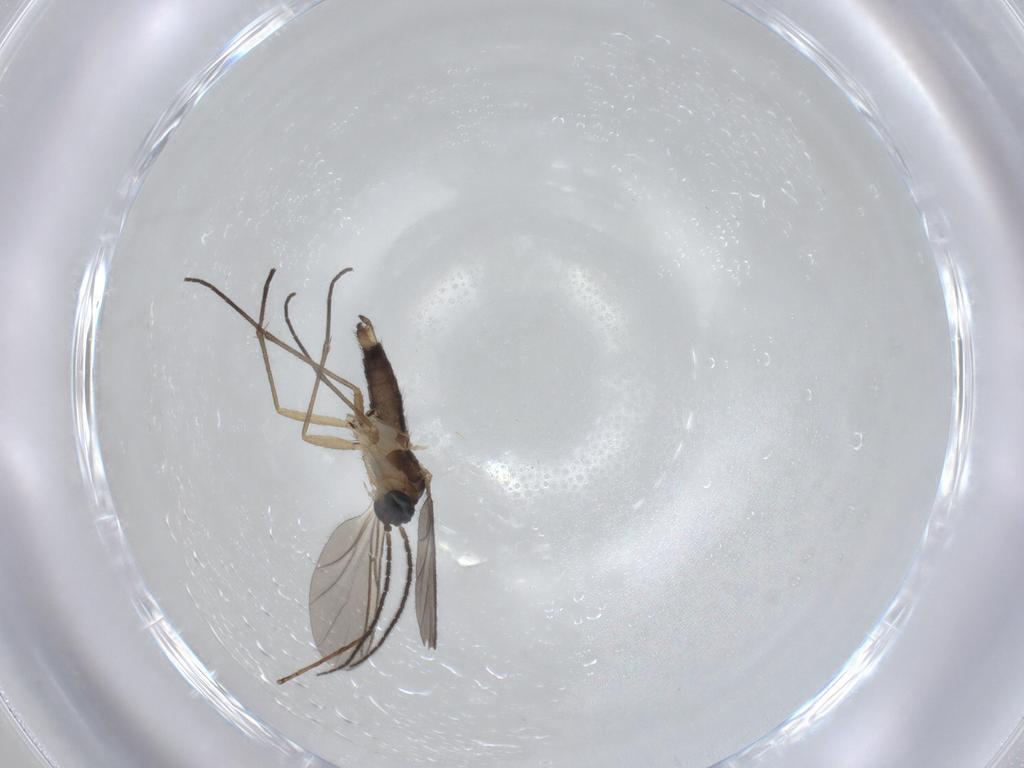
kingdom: Animalia
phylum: Arthropoda
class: Insecta
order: Diptera
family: Sciaridae
